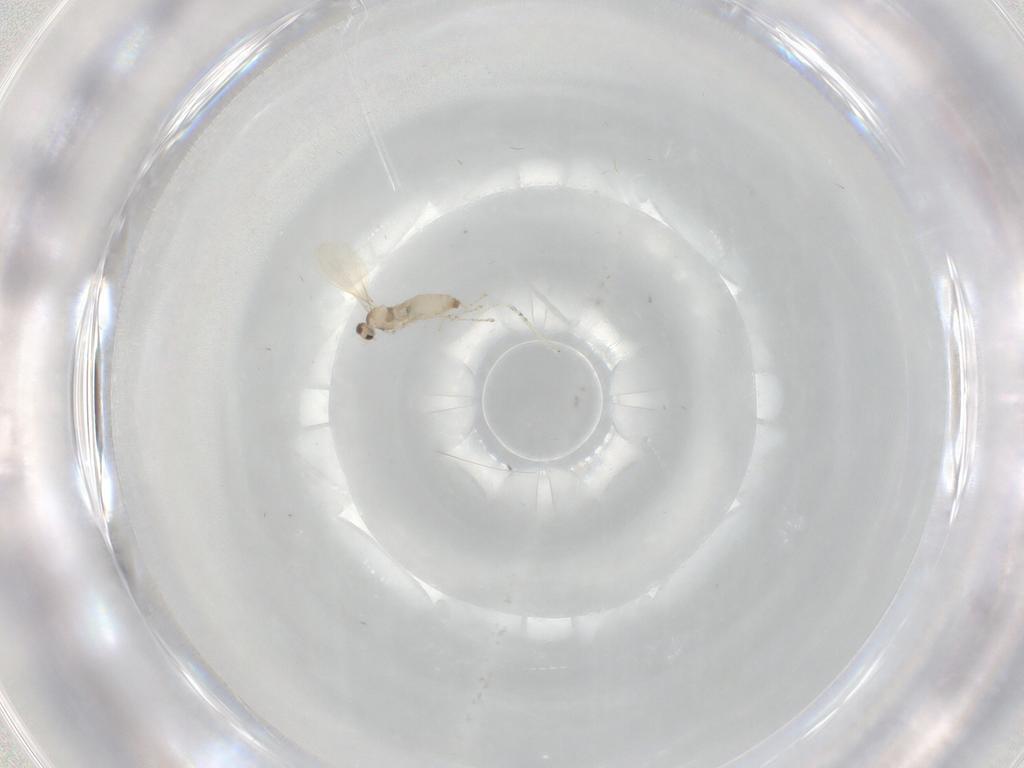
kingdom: Animalia
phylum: Arthropoda
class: Insecta
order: Diptera
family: Cecidomyiidae
